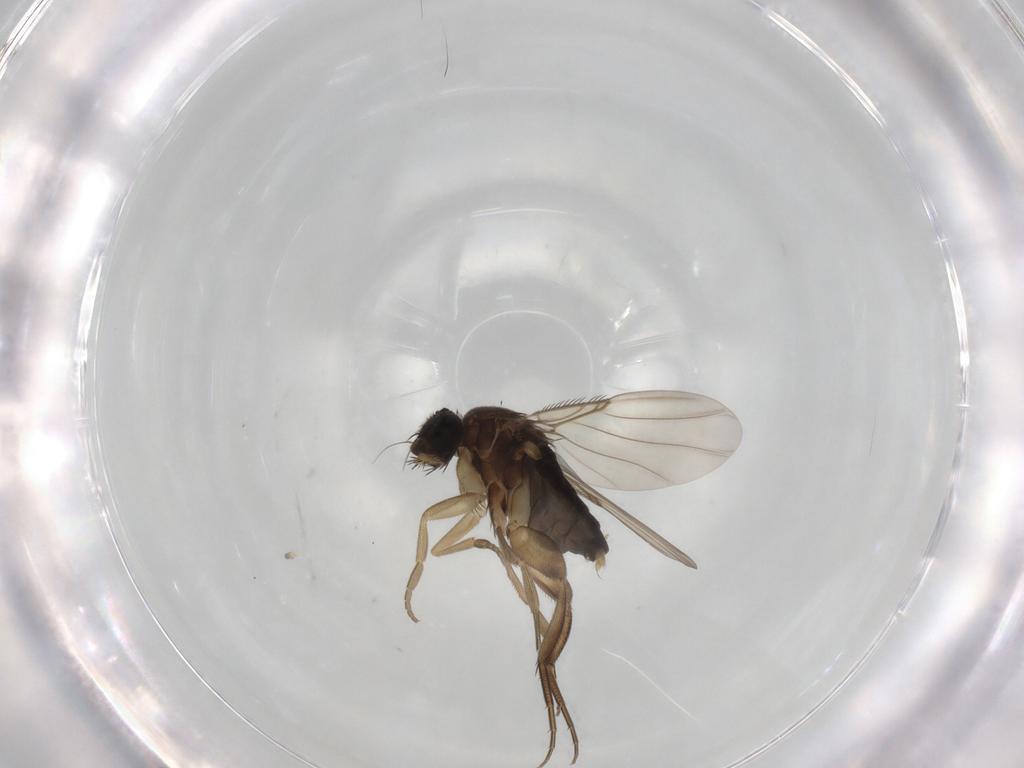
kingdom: Animalia
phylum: Arthropoda
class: Insecta
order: Diptera
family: Phoridae
